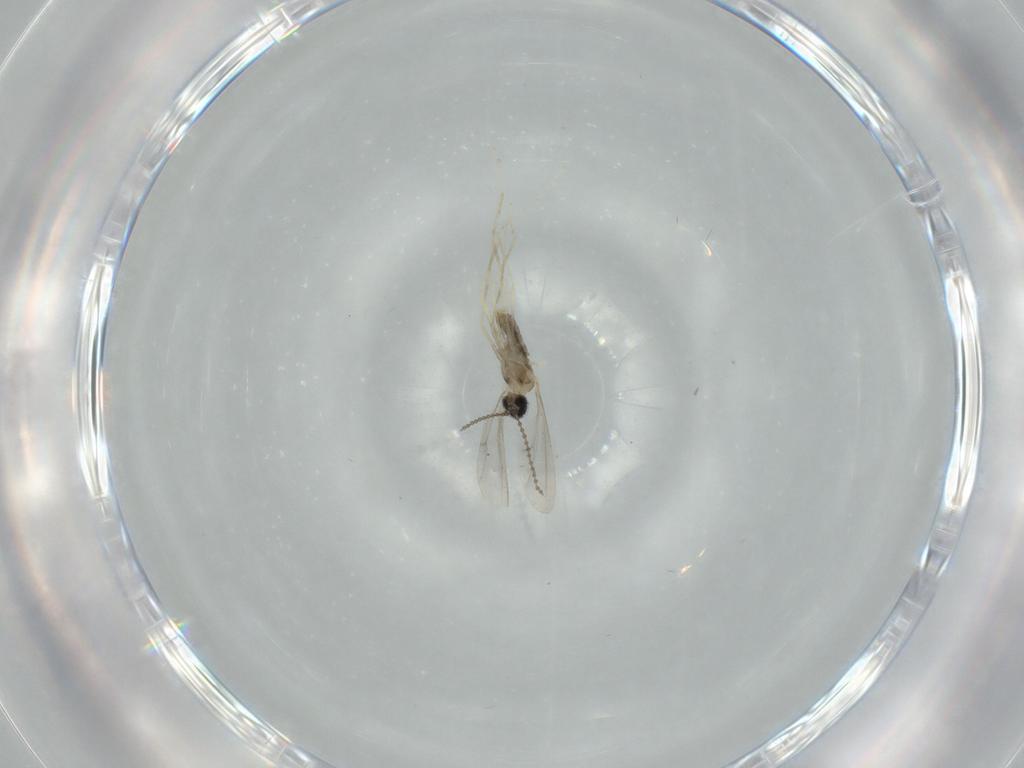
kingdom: Animalia
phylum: Arthropoda
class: Insecta
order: Diptera
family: Cecidomyiidae
